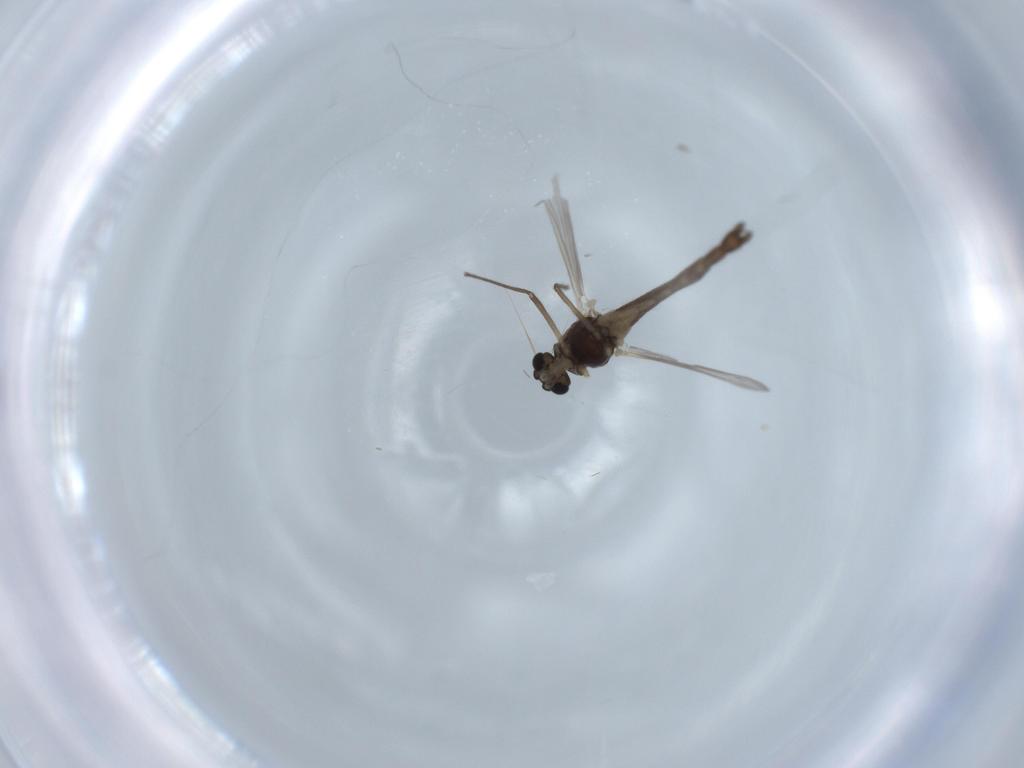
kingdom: Animalia
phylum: Arthropoda
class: Insecta
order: Diptera
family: Chironomidae
